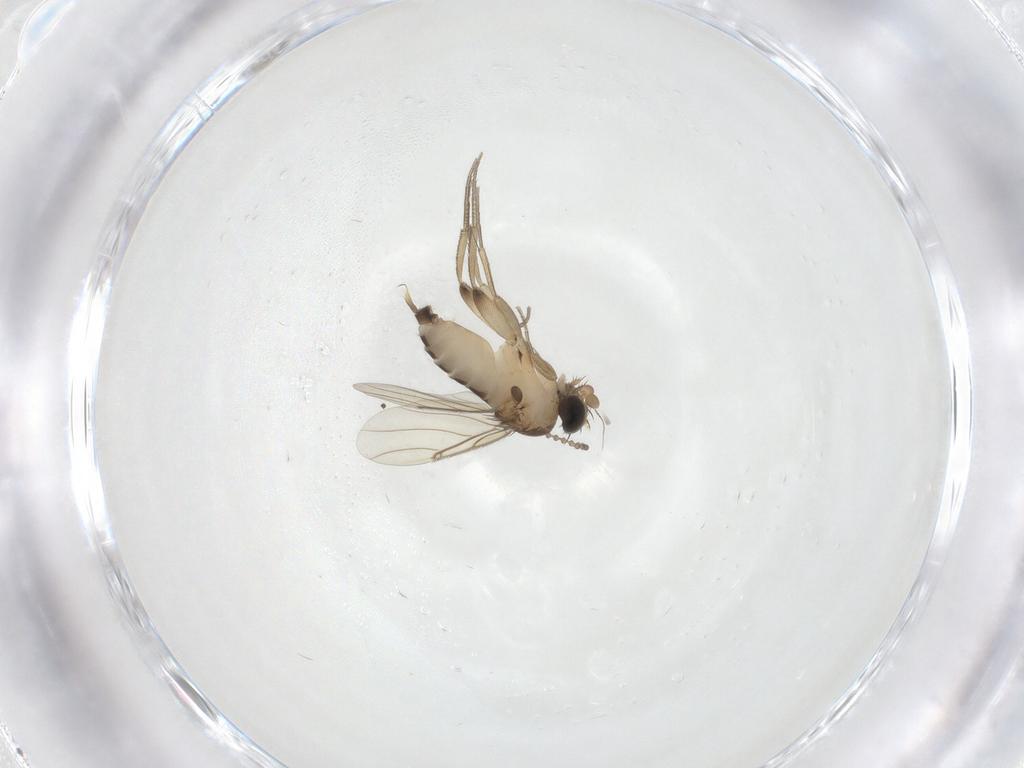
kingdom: Animalia
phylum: Arthropoda
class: Insecta
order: Diptera
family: Phoridae
